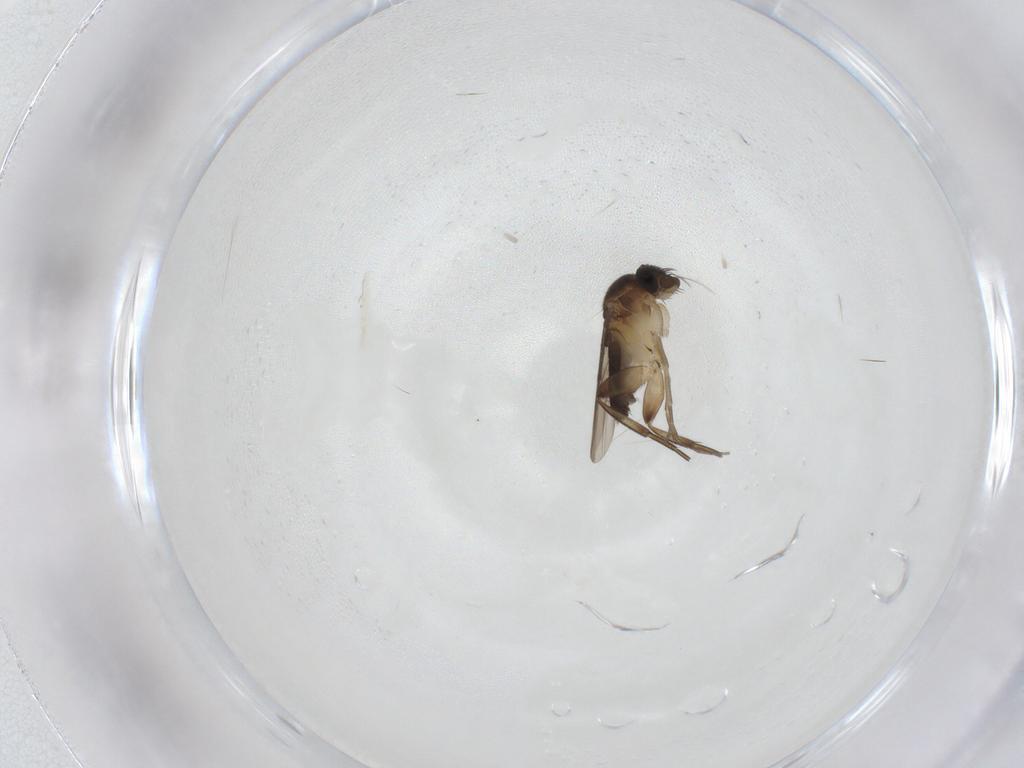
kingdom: Animalia
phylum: Arthropoda
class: Insecta
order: Diptera
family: Phoridae
